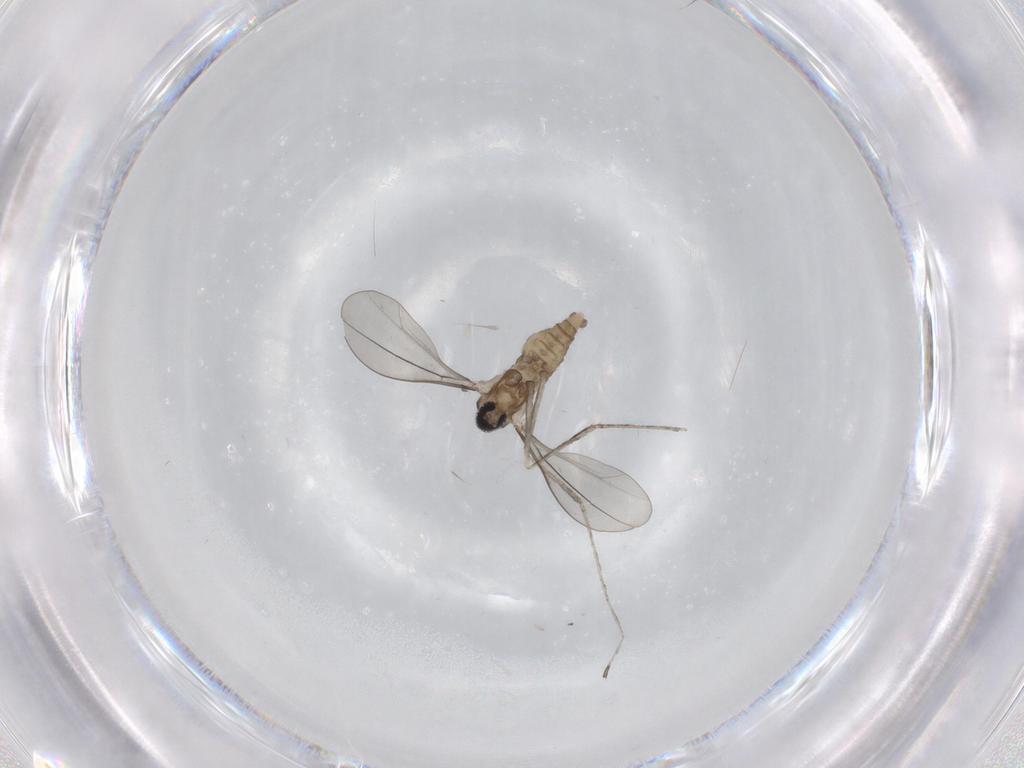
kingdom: Animalia
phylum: Arthropoda
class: Insecta
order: Diptera
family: Cecidomyiidae
